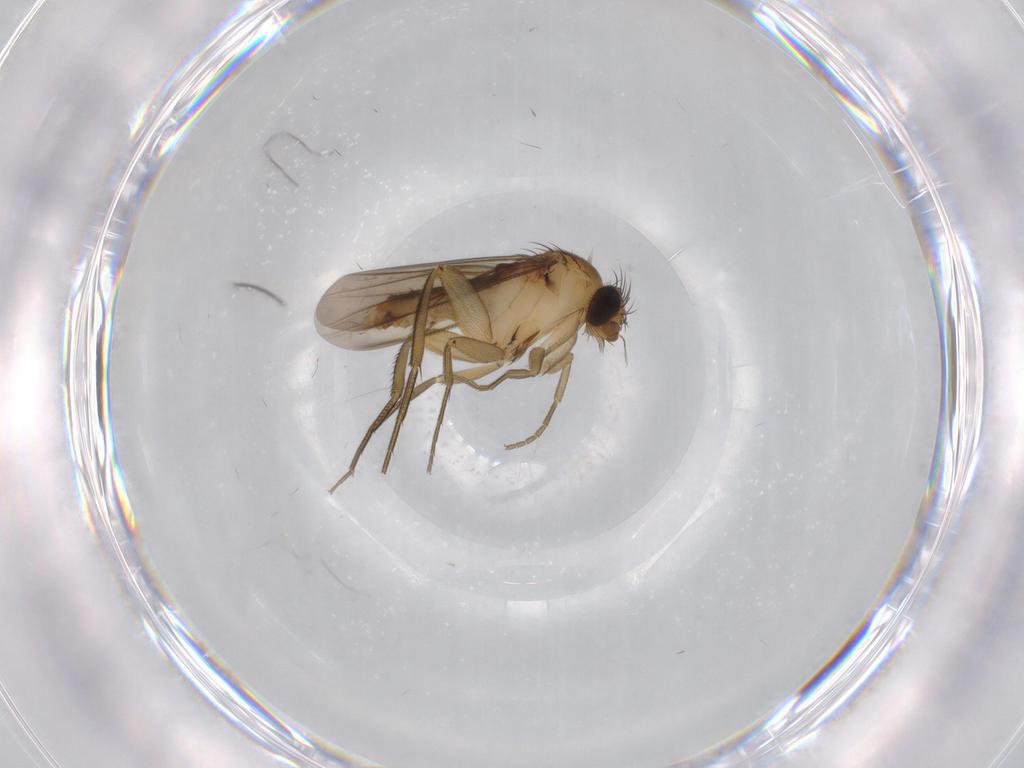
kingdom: Animalia
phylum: Arthropoda
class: Insecta
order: Diptera
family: Phoridae
